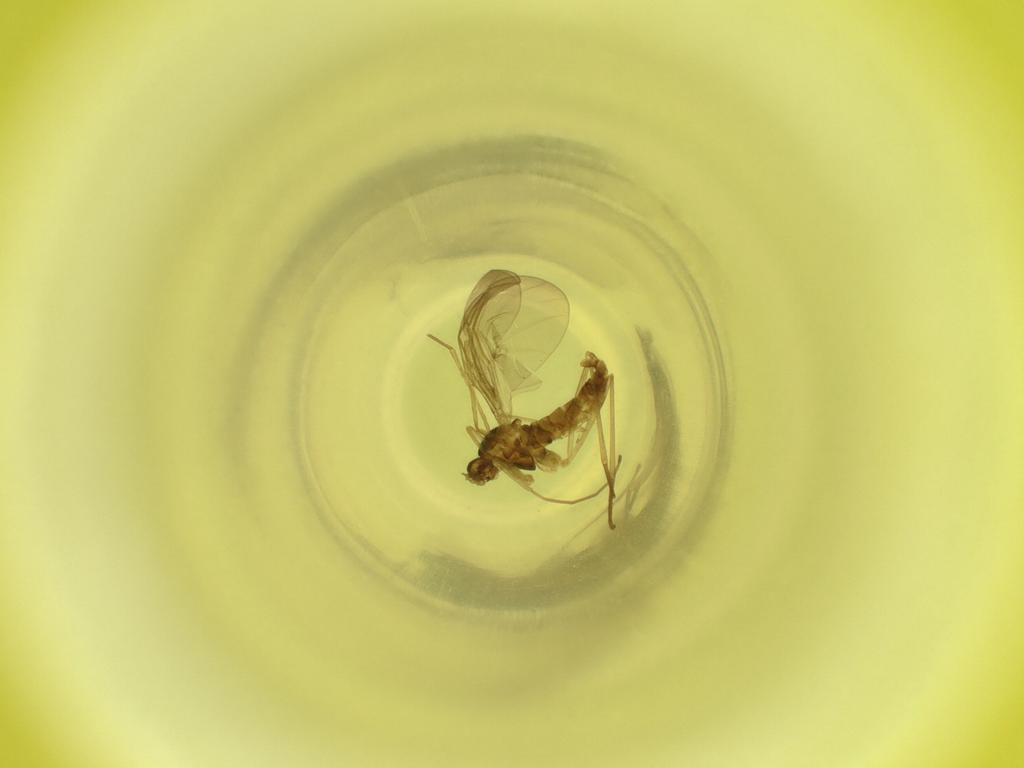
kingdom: Animalia
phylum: Arthropoda
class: Insecta
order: Diptera
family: Cecidomyiidae
